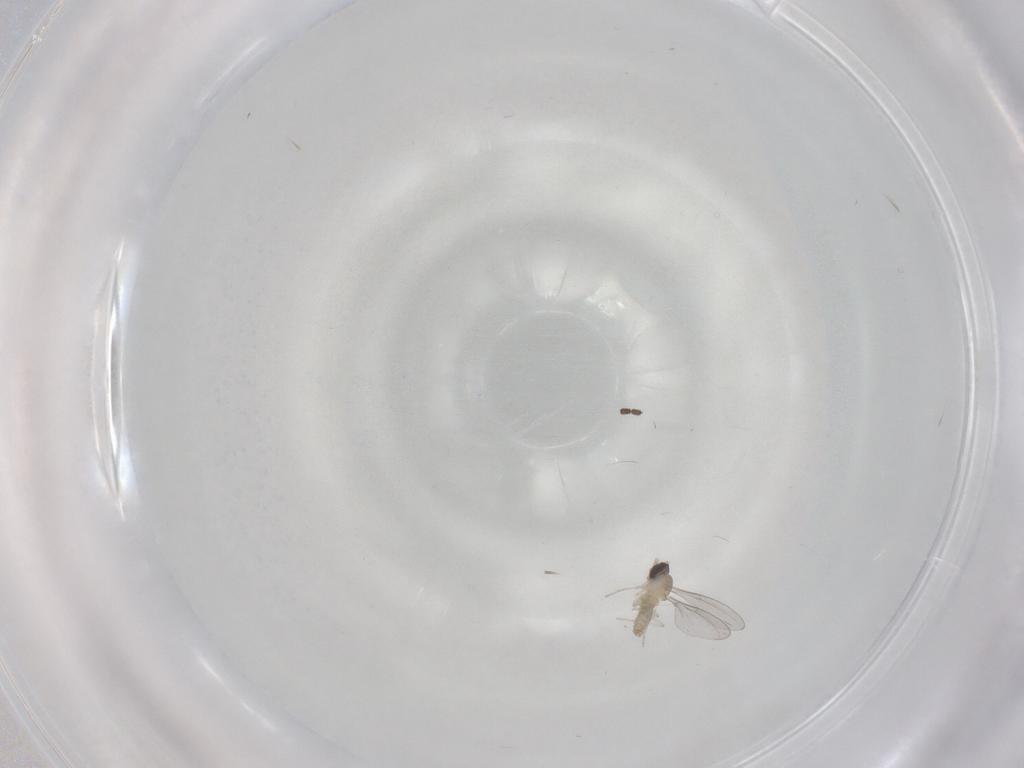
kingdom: Animalia
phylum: Arthropoda
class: Insecta
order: Diptera
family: Cecidomyiidae
